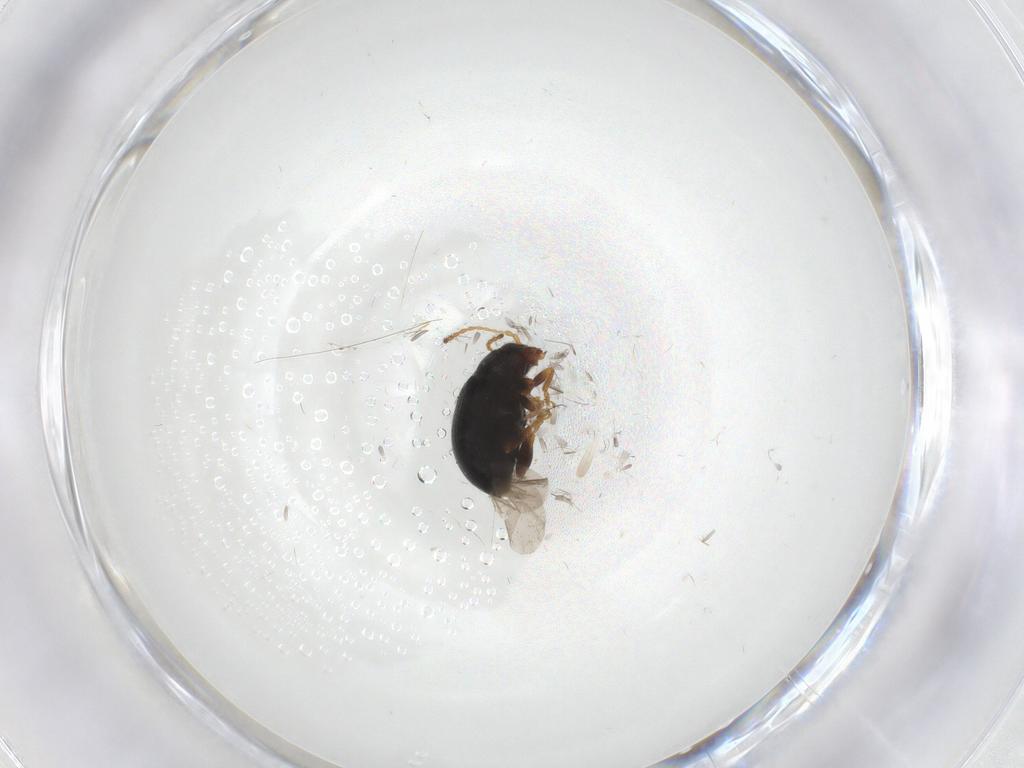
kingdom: Animalia
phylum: Arthropoda
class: Insecta
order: Coleoptera
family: Chrysomelidae
